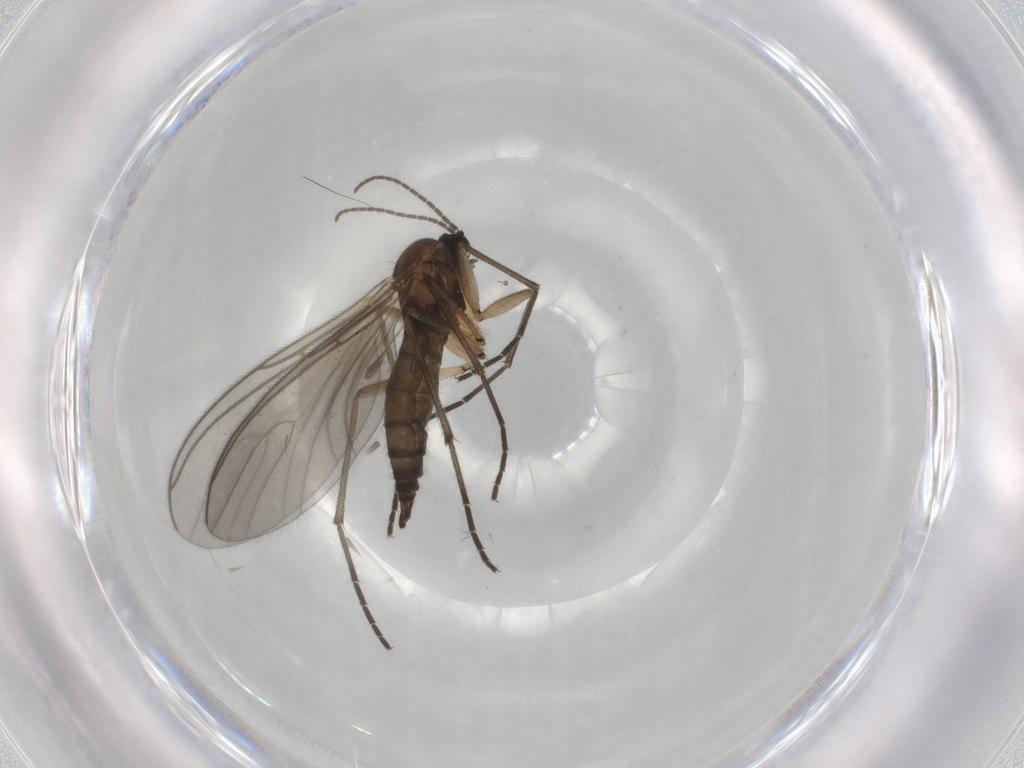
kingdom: Animalia
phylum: Arthropoda
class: Insecta
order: Diptera
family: Sciaridae
